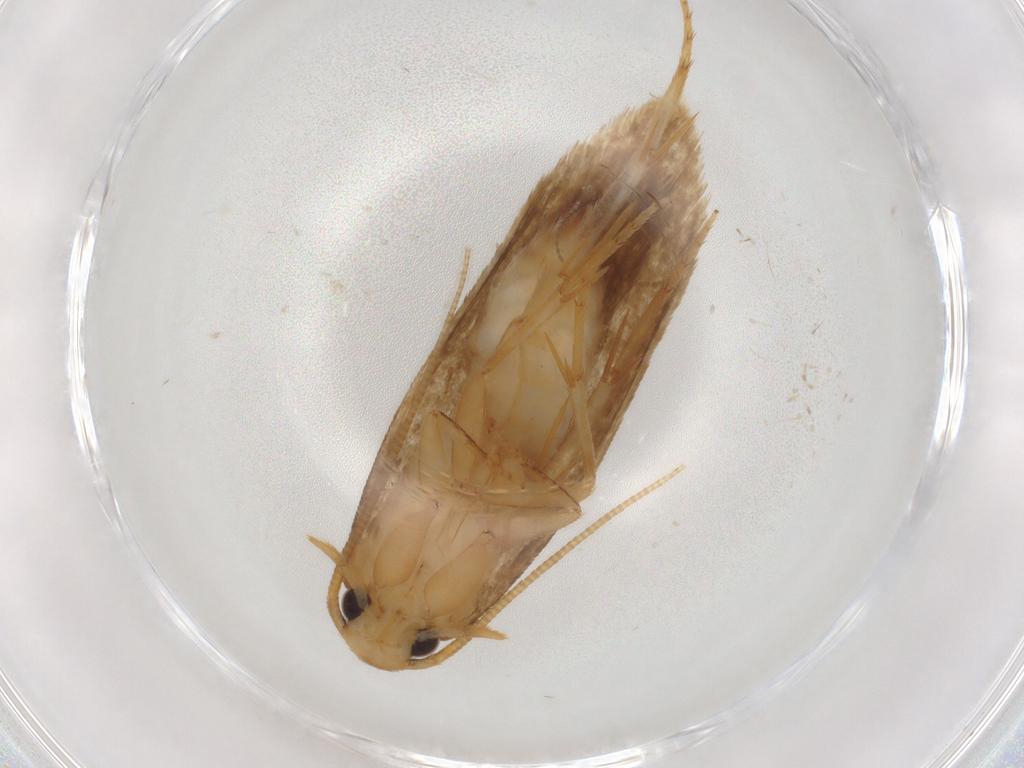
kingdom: Animalia
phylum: Arthropoda
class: Insecta
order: Lepidoptera
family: Tineidae
